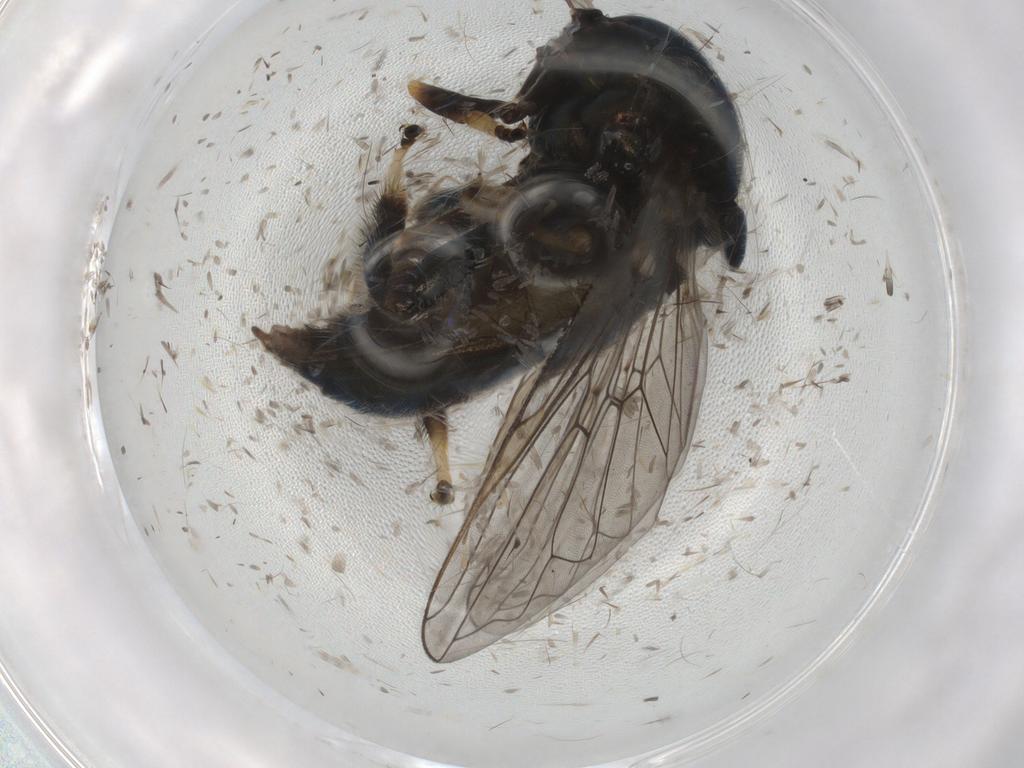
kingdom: Animalia
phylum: Arthropoda
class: Insecta
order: Diptera
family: Syrphidae
